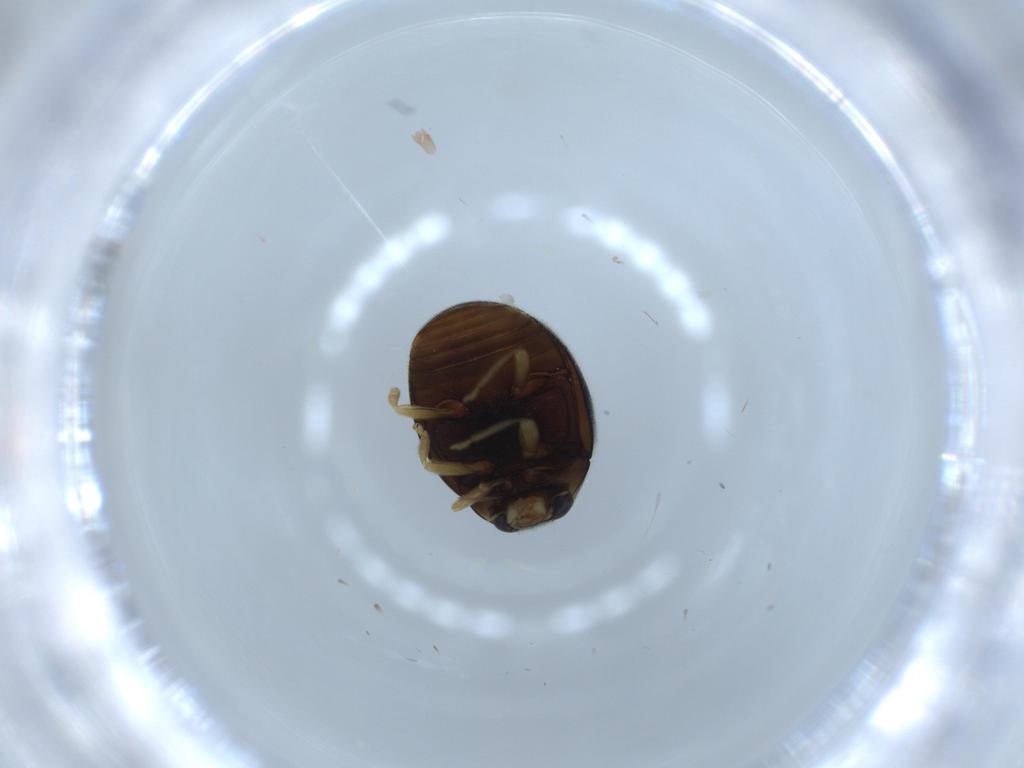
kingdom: Animalia
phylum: Arthropoda
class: Insecta
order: Coleoptera
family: Coccinellidae
